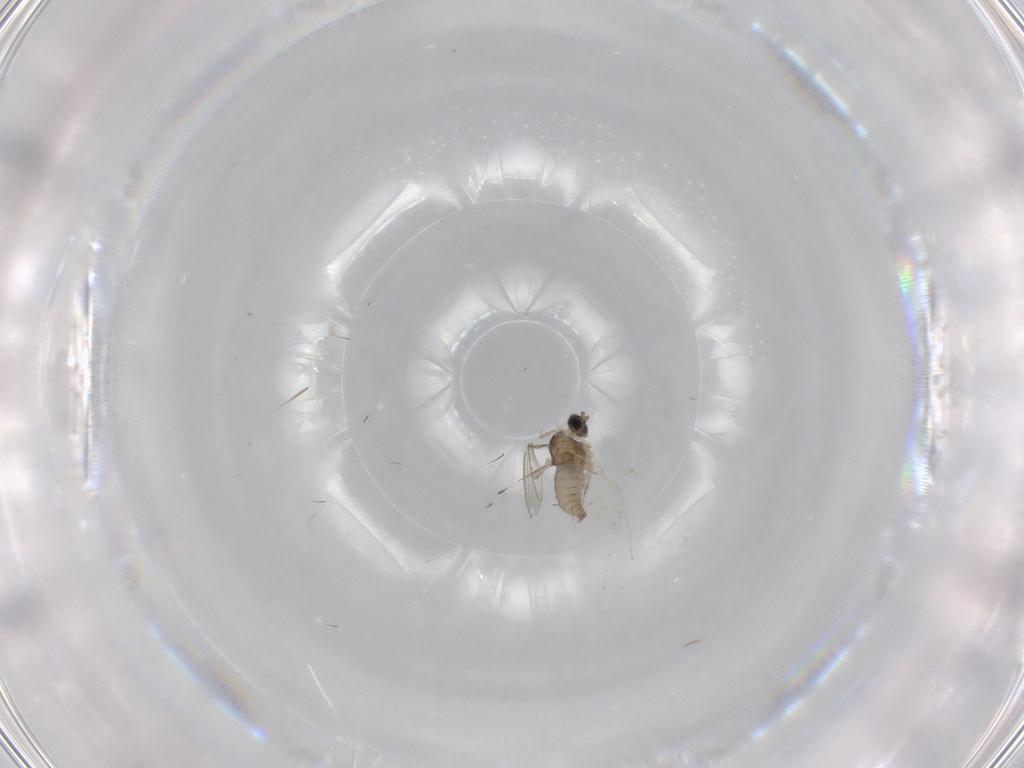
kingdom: Animalia
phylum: Arthropoda
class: Insecta
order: Diptera
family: Cecidomyiidae
